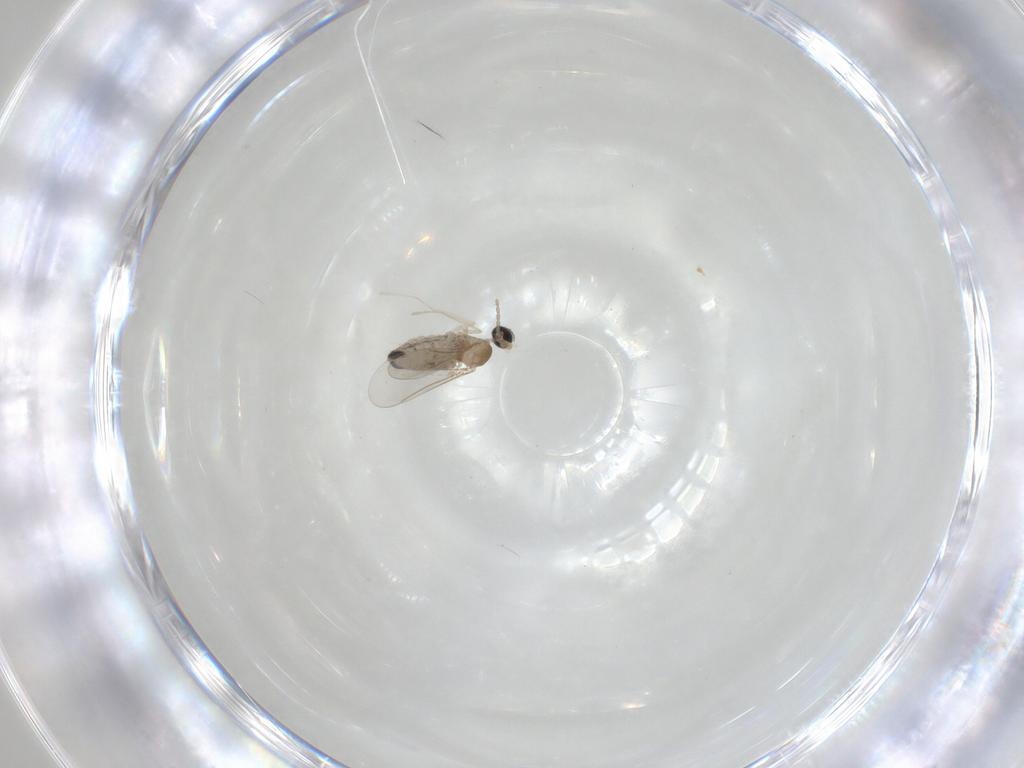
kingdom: Animalia
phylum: Arthropoda
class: Insecta
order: Diptera
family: Cecidomyiidae
